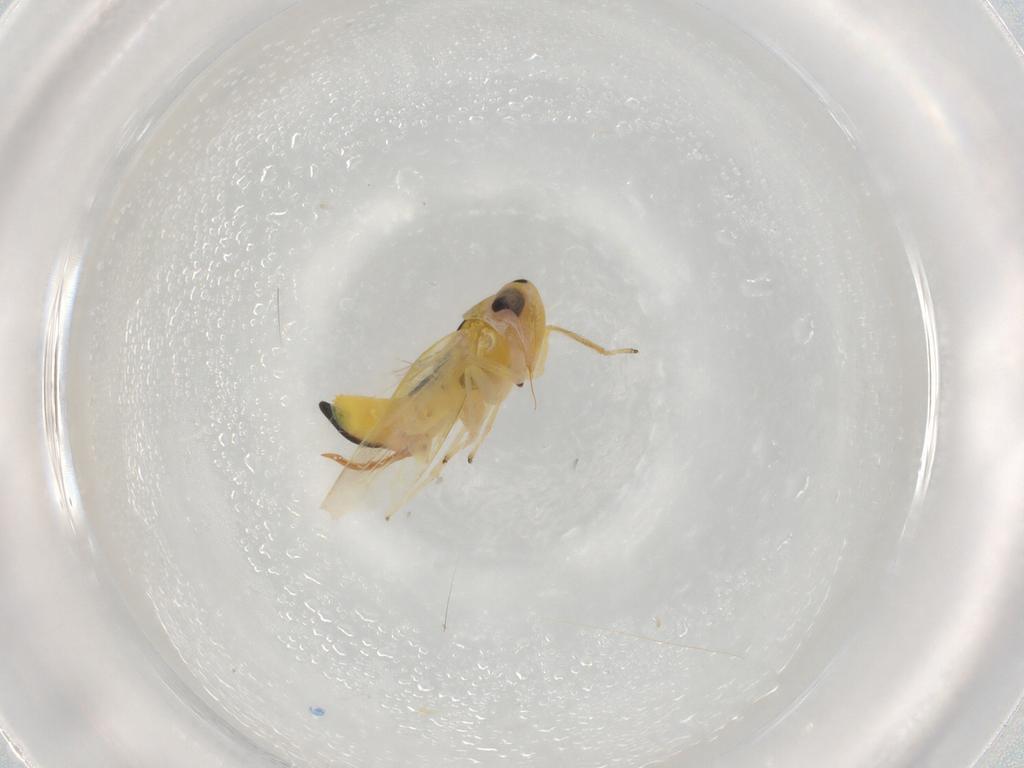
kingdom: Animalia
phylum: Arthropoda
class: Insecta
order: Hemiptera
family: Cicadellidae
